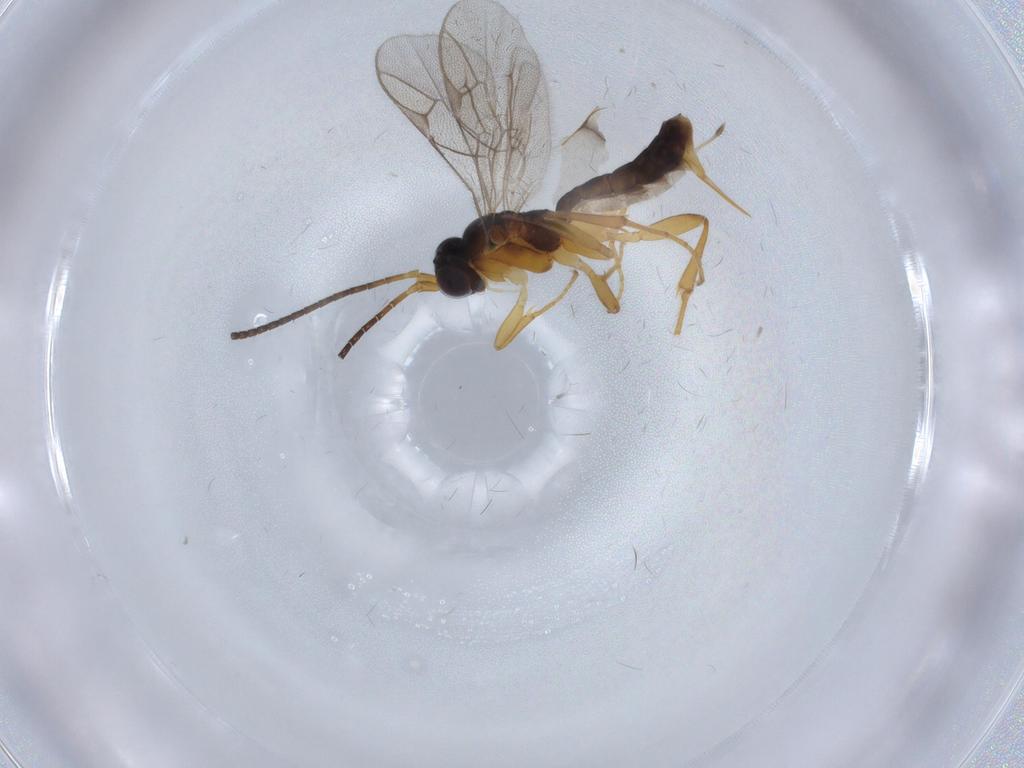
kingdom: Animalia
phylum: Arthropoda
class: Insecta
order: Hymenoptera
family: Ichneumonidae
